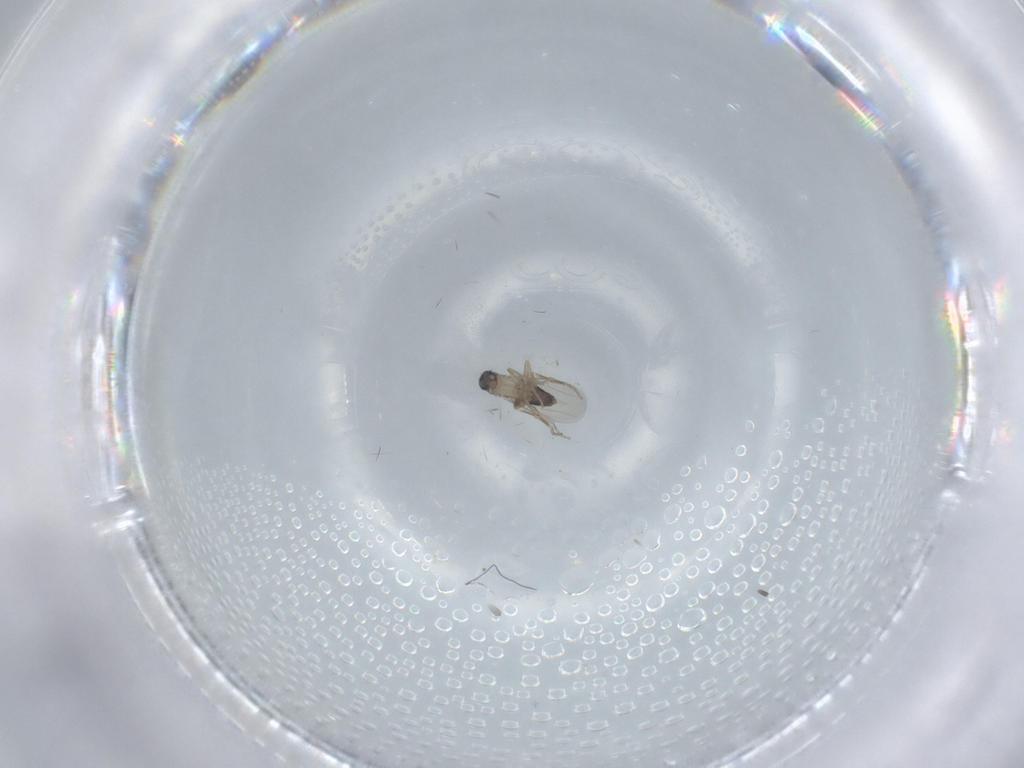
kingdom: Animalia
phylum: Arthropoda
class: Insecta
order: Diptera
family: Phoridae
